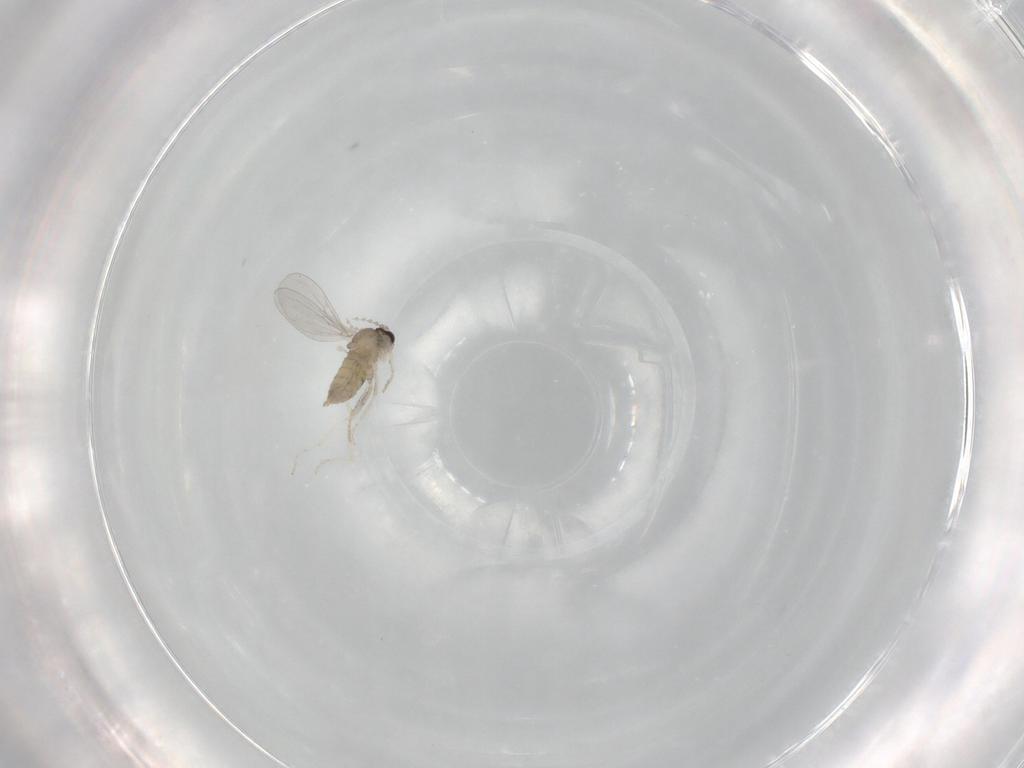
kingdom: Animalia
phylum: Arthropoda
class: Insecta
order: Diptera
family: Cecidomyiidae
